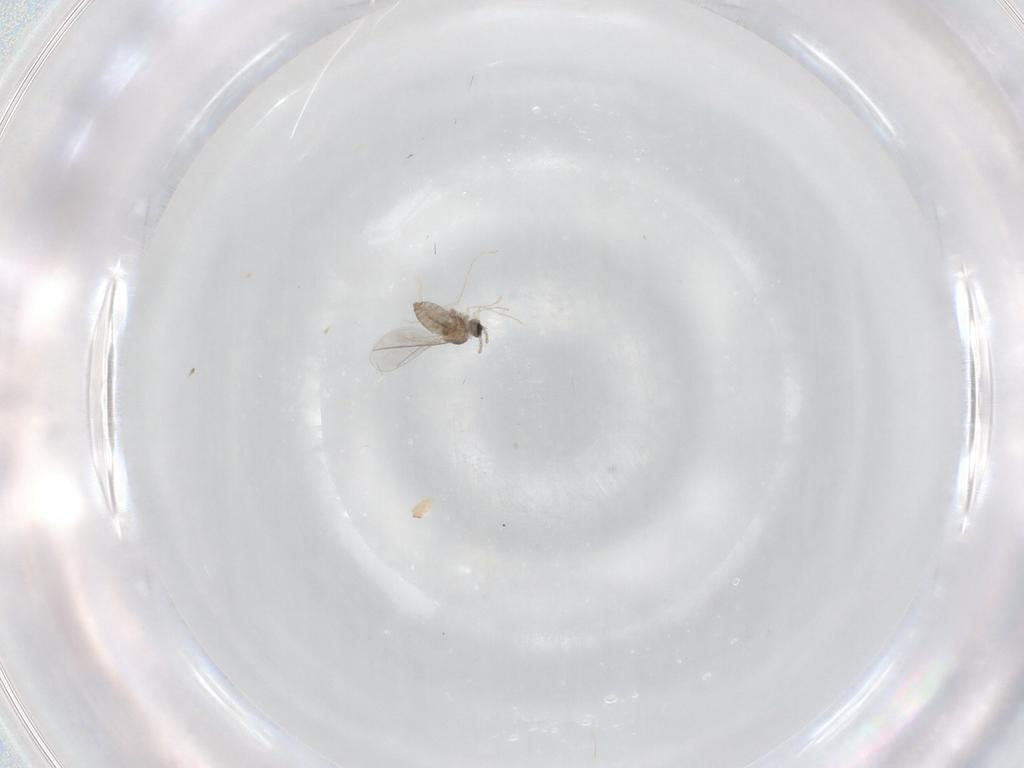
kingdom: Animalia
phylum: Arthropoda
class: Insecta
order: Diptera
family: Cecidomyiidae
